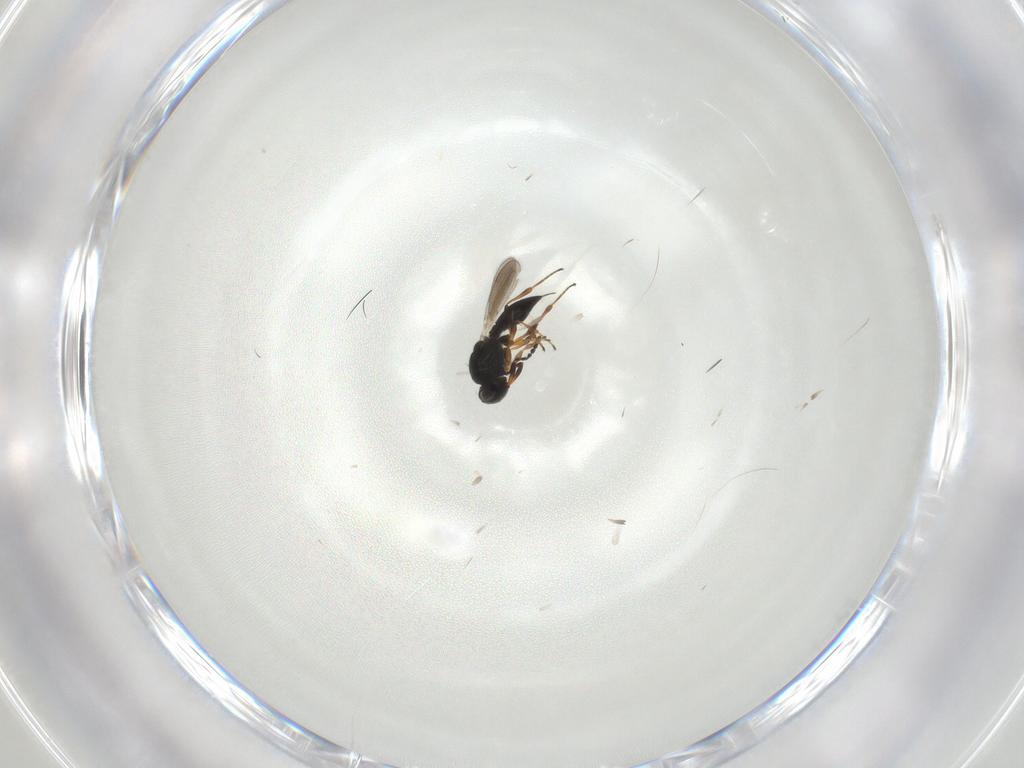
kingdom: Animalia
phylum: Arthropoda
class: Insecta
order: Hymenoptera
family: Platygastridae
